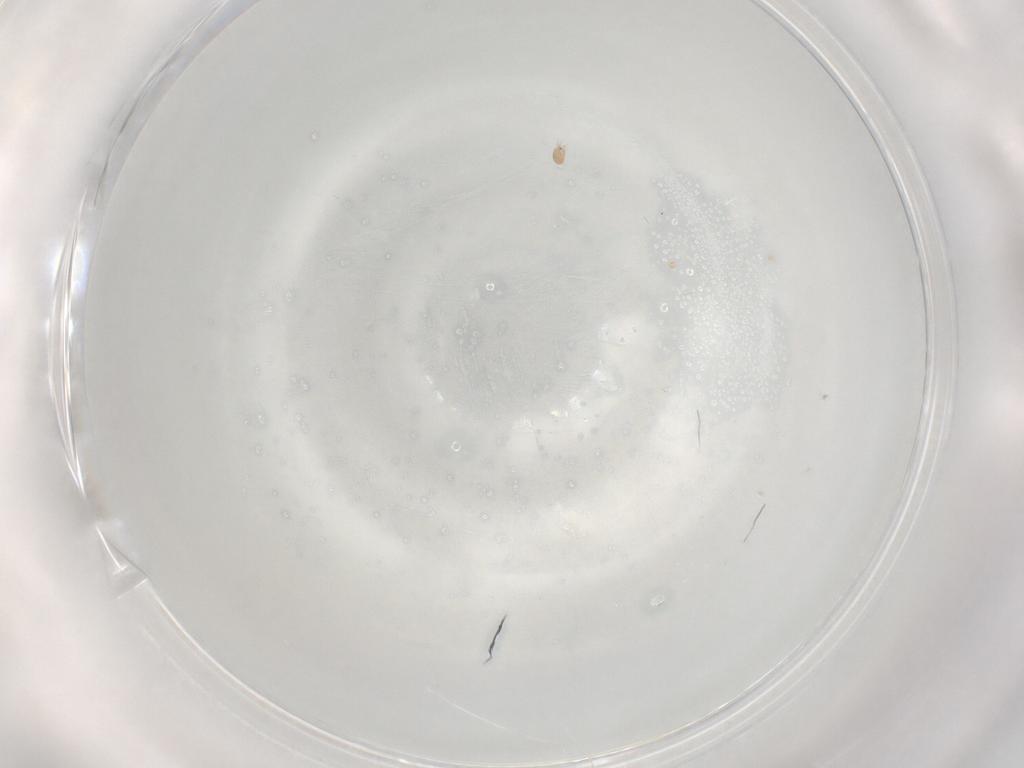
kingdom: Animalia
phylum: Arthropoda
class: Arachnida
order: Sarcoptiformes
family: Hemisarcoptidae
